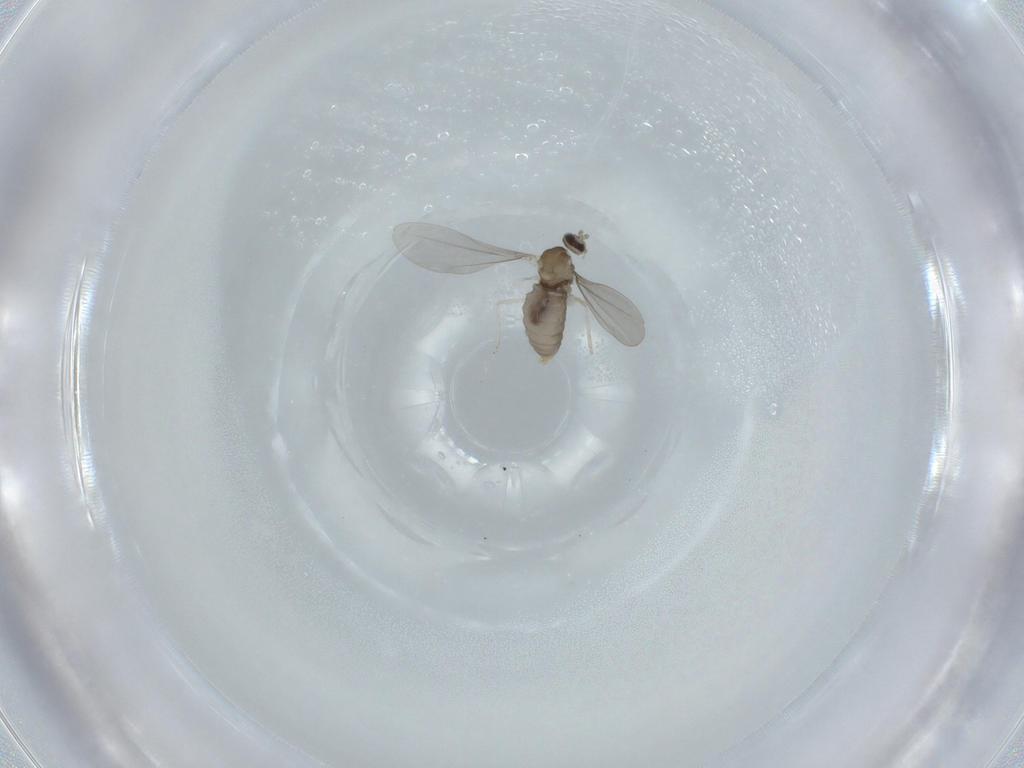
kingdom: Animalia
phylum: Arthropoda
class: Insecta
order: Diptera
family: Cecidomyiidae
